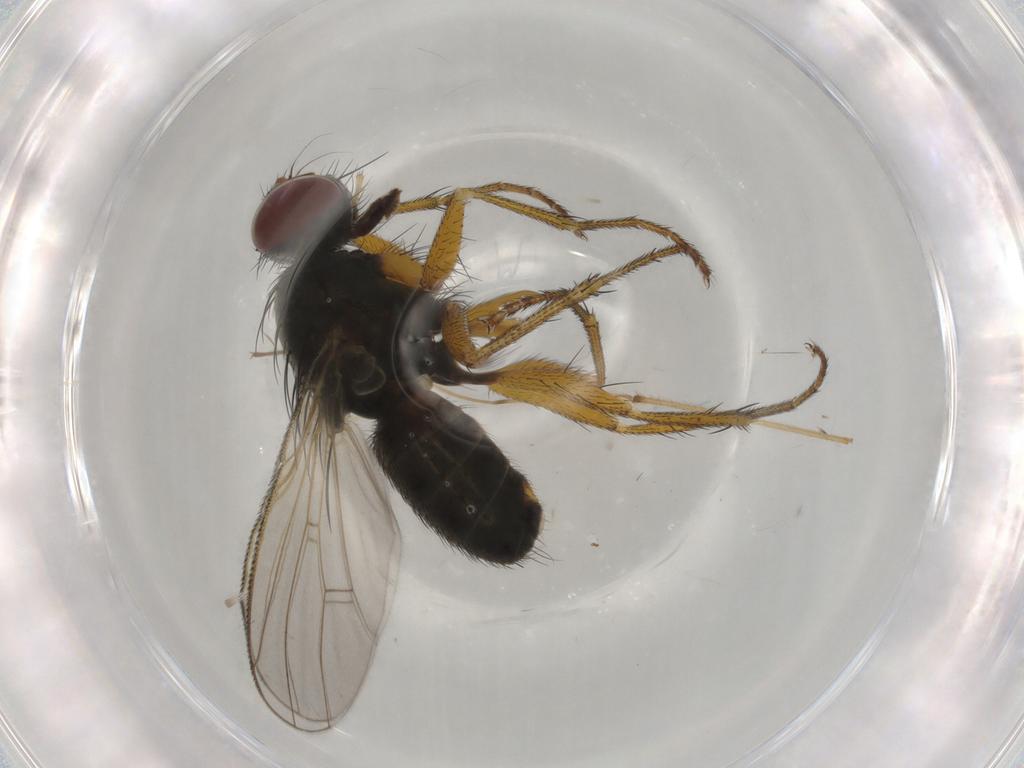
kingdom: Animalia
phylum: Arthropoda
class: Insecta
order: Diptera
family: Chironomidae
